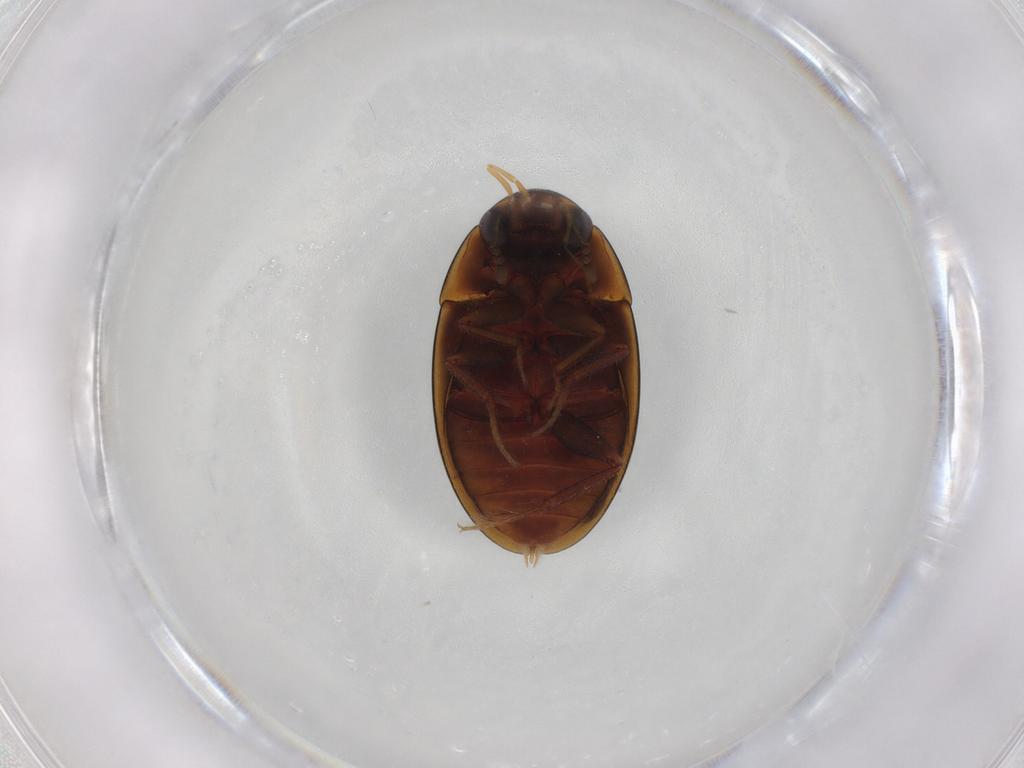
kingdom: Animalia
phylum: Arthropoda
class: Insecta
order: Coleoptera
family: Hydrophilidae
